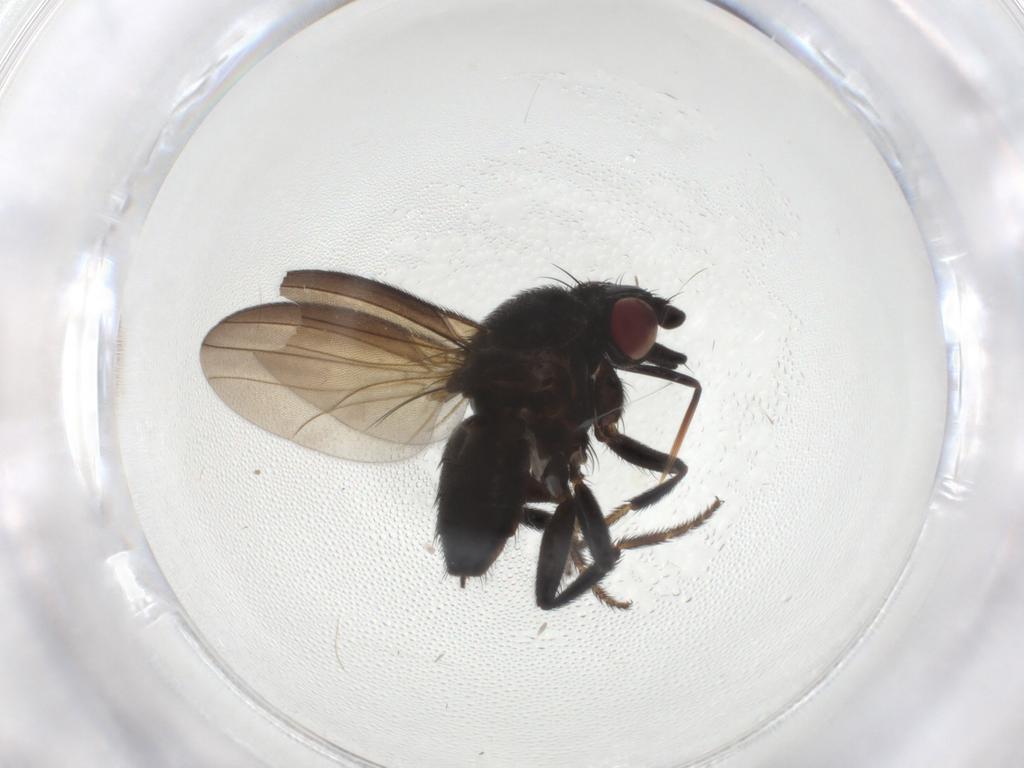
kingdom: Animalia
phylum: Arthropoda
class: Insecta
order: Diptera
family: Milichiidae
